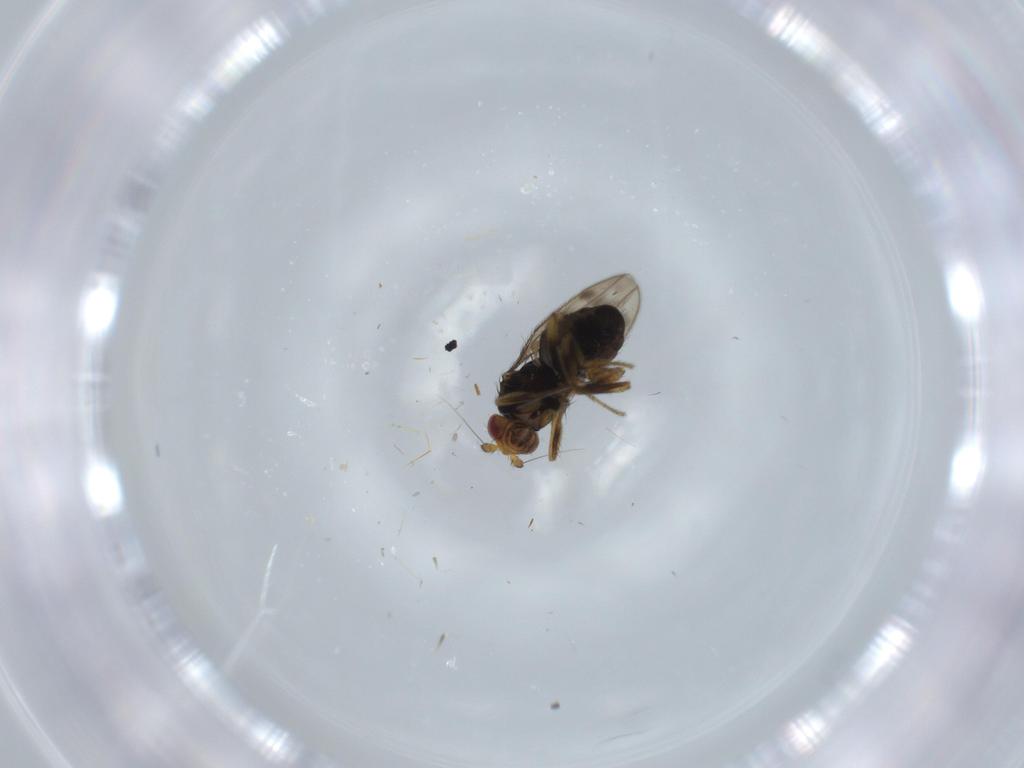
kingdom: Animalia
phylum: Arthropoda
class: Insecta
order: Diptera
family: Sphaeroceridae
